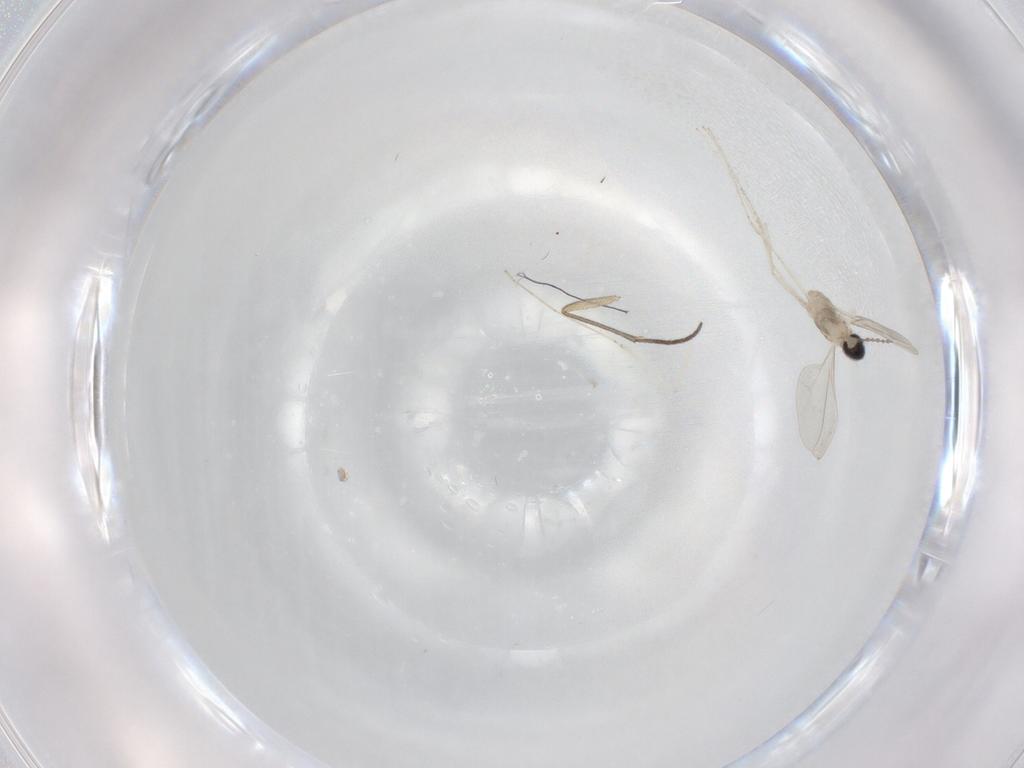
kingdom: Animalia
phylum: Arthropoda
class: Insecta
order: Diptera
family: Sciaridae
